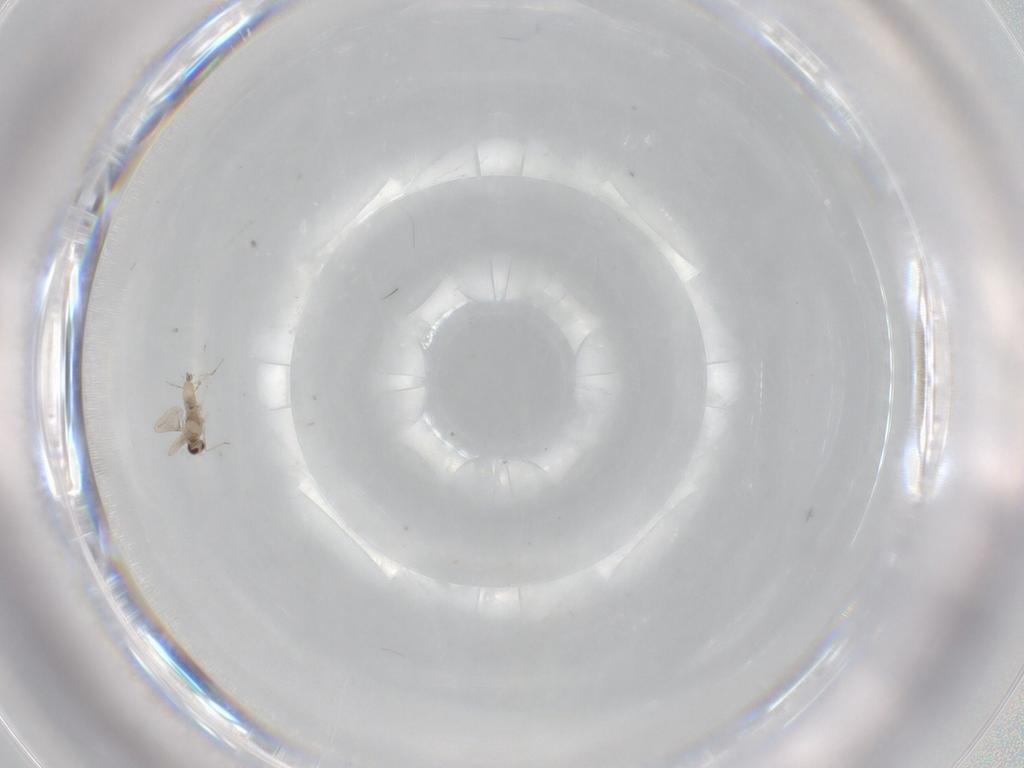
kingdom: Animalia
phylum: Arthropoda
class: Insecta
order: Diptera
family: Cecidomyiidae
